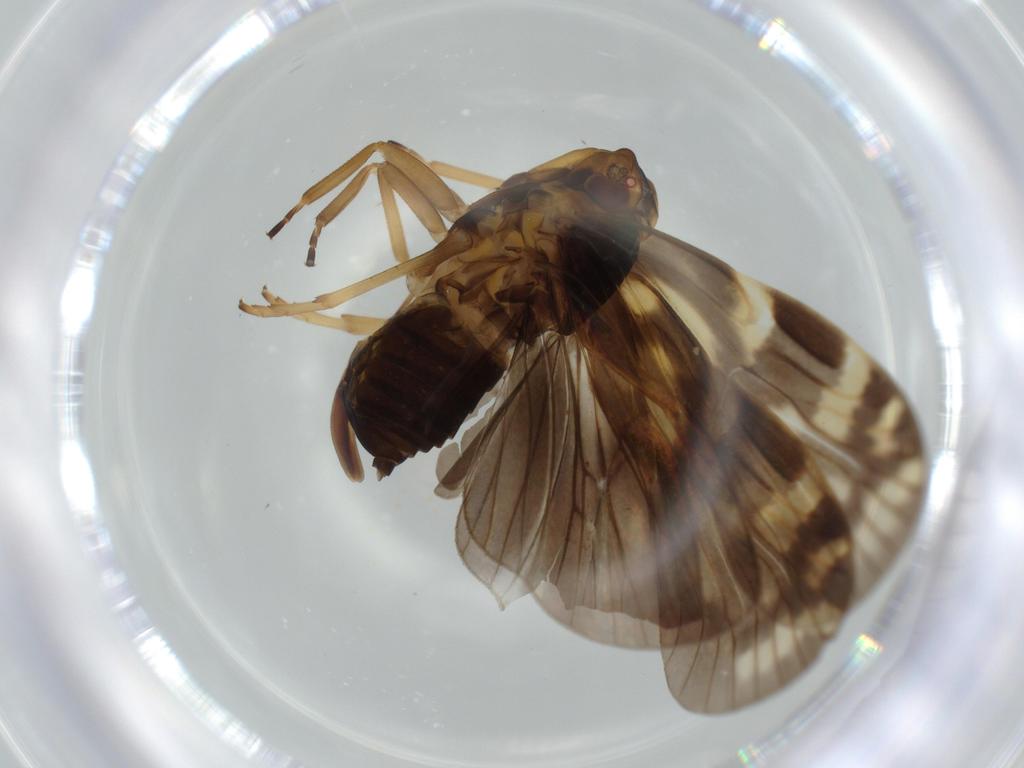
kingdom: Animalia
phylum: Arthropoda
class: Insecta
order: Hemiptera
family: Cixiidae
